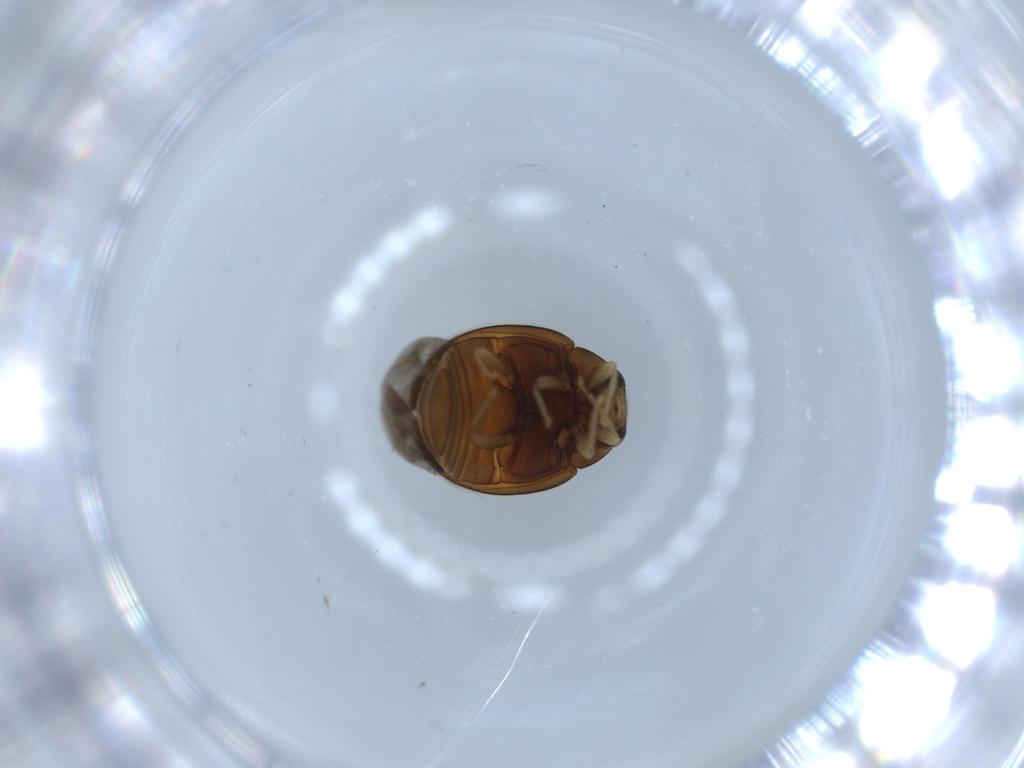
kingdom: Animalia
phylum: Arthropoda
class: Insecta
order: Coleoptera
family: Coccinellidae
